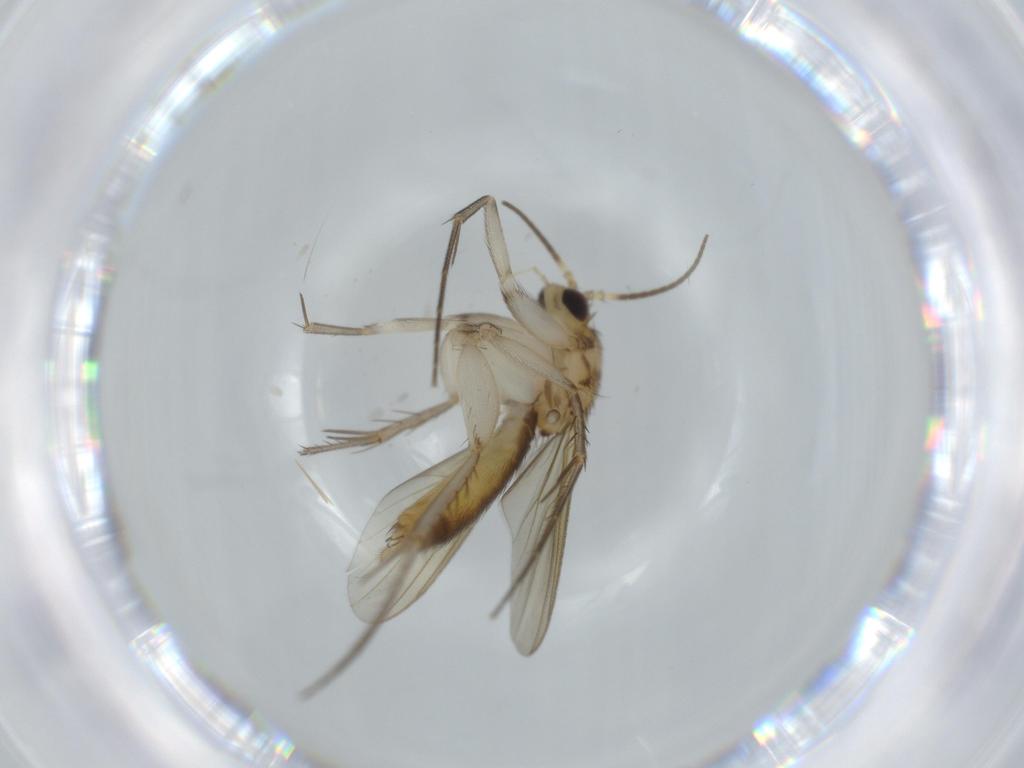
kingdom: Animalia
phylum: Arthropoda
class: Insecta
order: Diptera
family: Mycetophilidae
